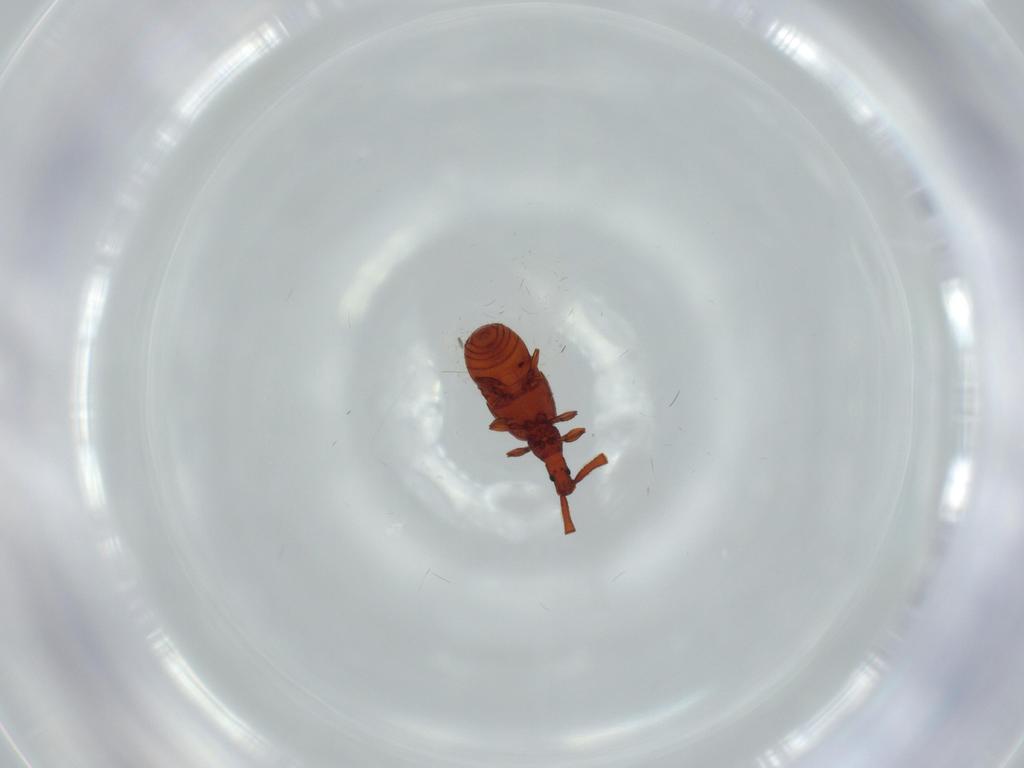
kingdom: Animalia
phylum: Arthropoda
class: Insecta
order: Coleoptera
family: Staphylinidae
